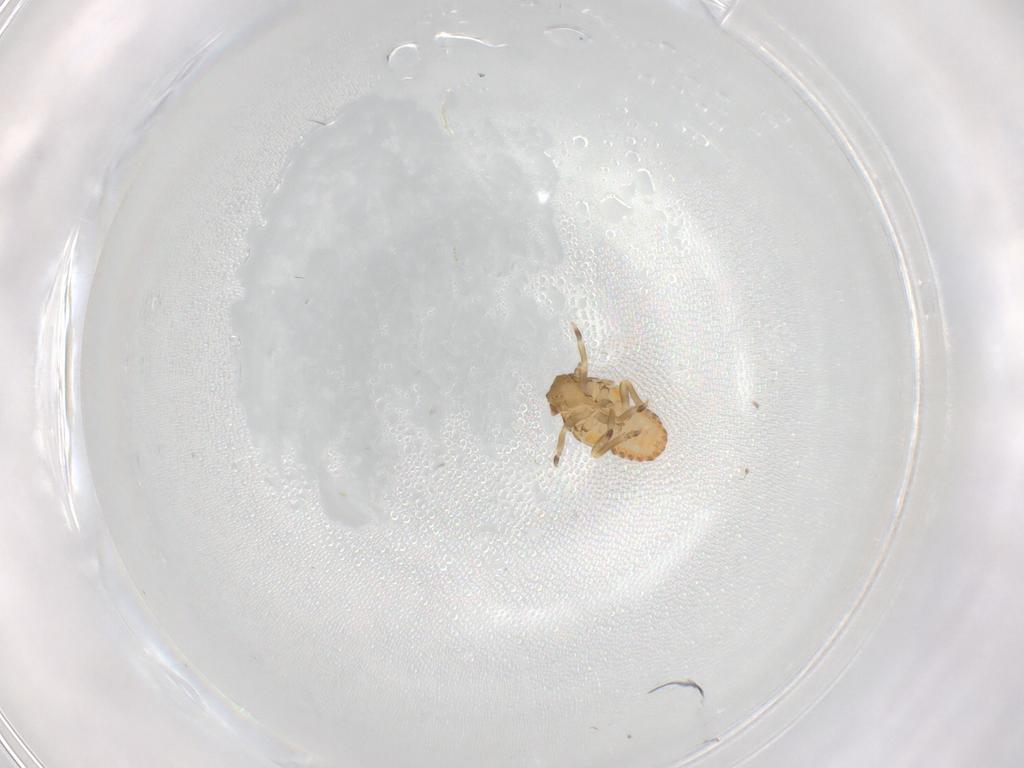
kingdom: Animalia
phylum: Arthropoda
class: Insecta
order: Hemiptera
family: Flatidae
